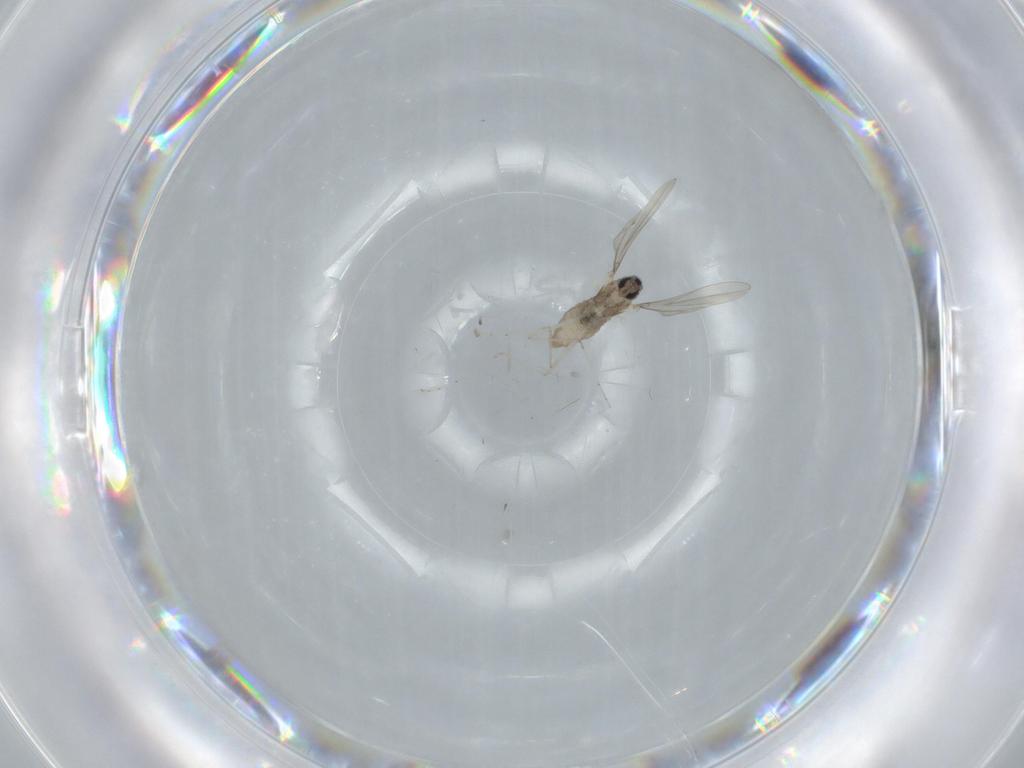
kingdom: Animalia
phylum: Arthropoda
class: Insecta
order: Diptera
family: Cecidomyiidae
